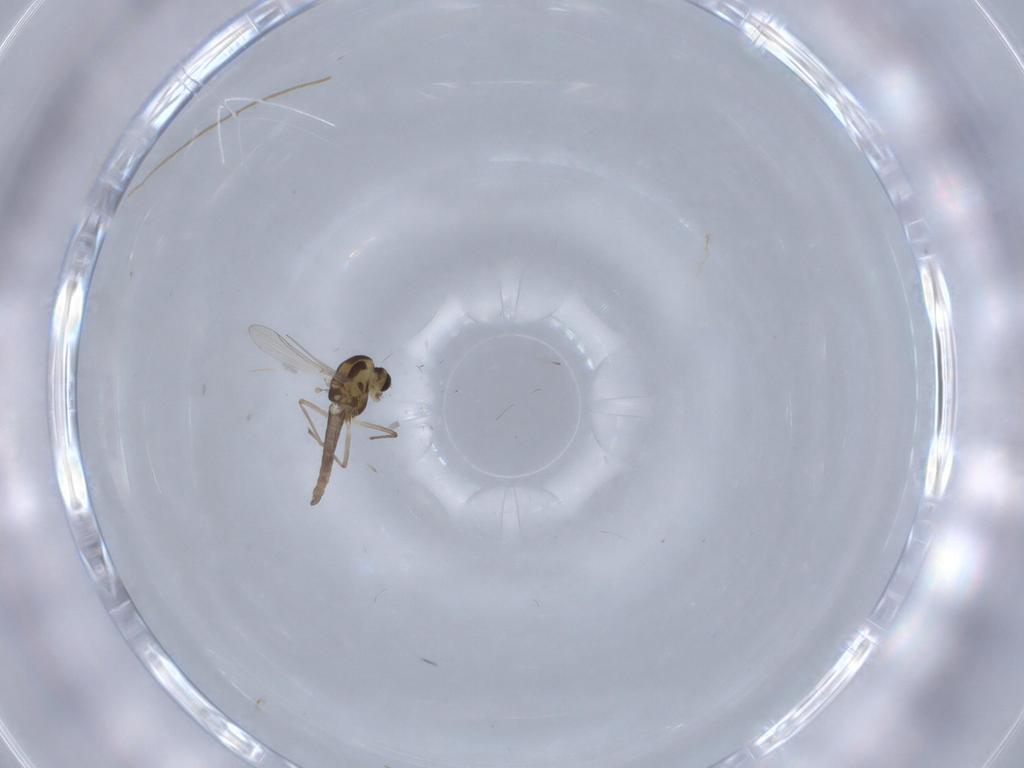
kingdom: Animalia
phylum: Arthropoda
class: Insecta
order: Diptera
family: Chironomidae
